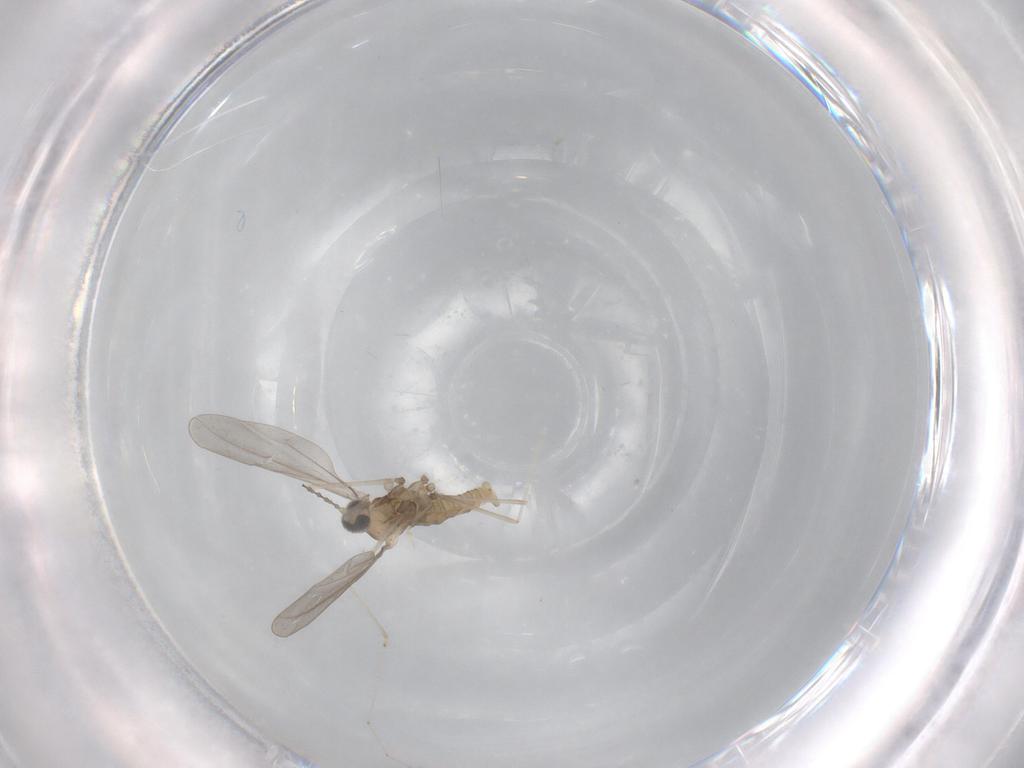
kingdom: Animalia
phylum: Arthropoda
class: Insecta
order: Diptera
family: Cecidomyiidae
